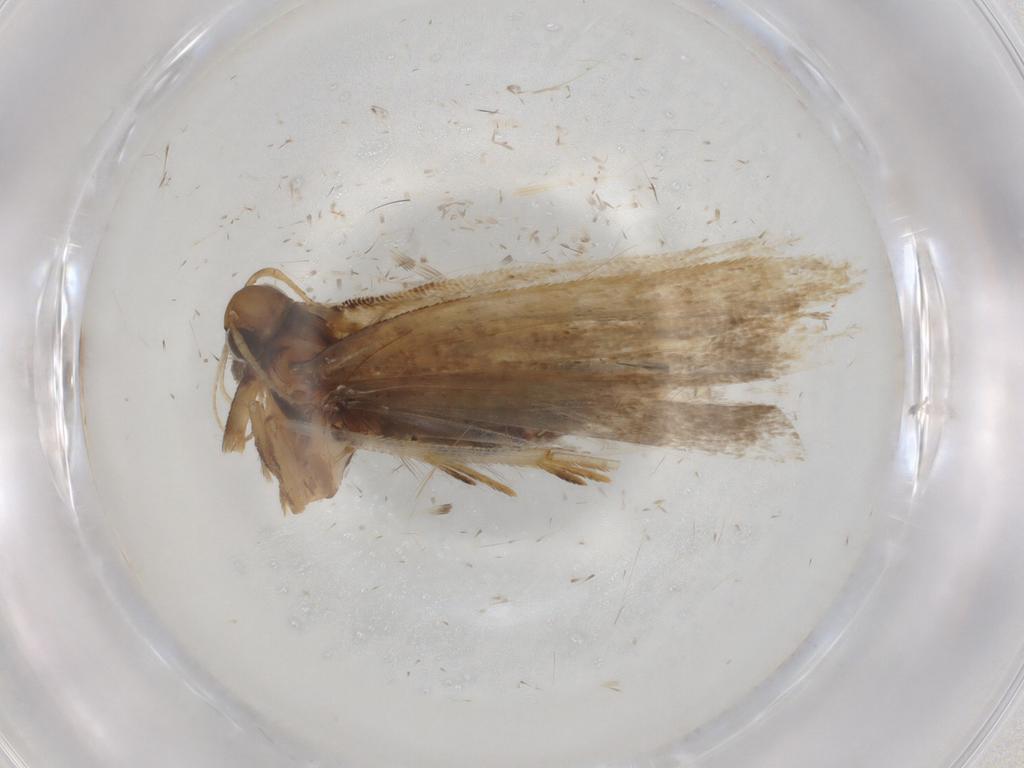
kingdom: Animalia
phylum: Arthropoda
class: Insecta
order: Lepidoptera
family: Gelechiidae
